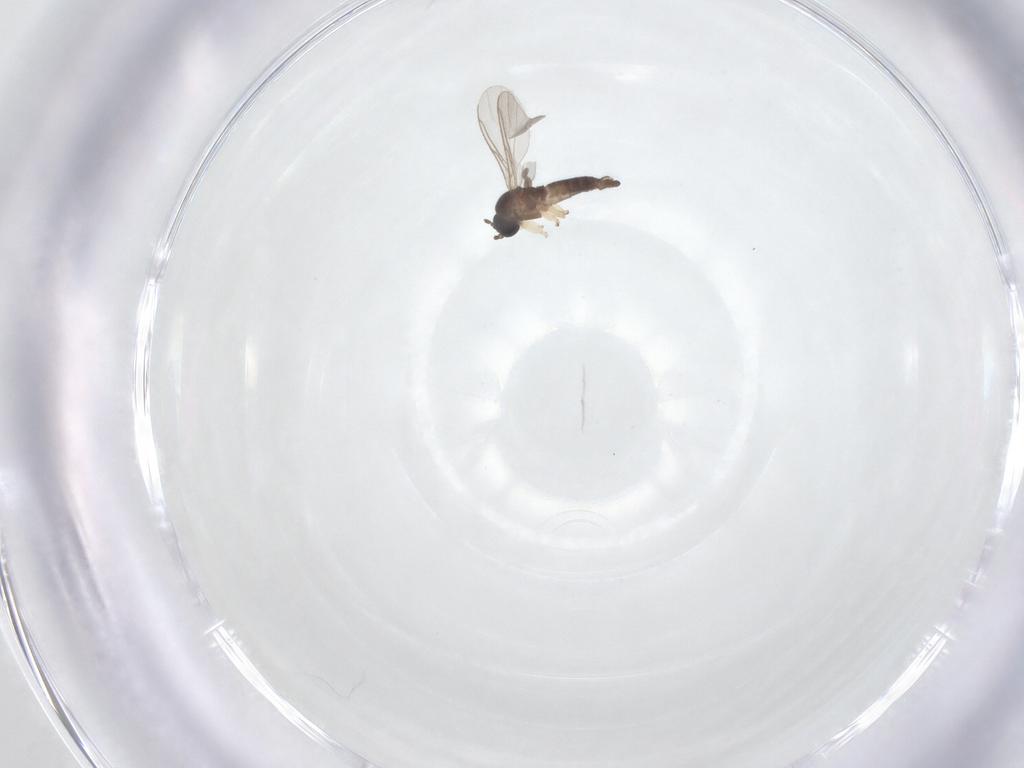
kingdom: Animalia
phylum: Arthropoda
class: Insecta
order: Diptera
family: Sciaridae
